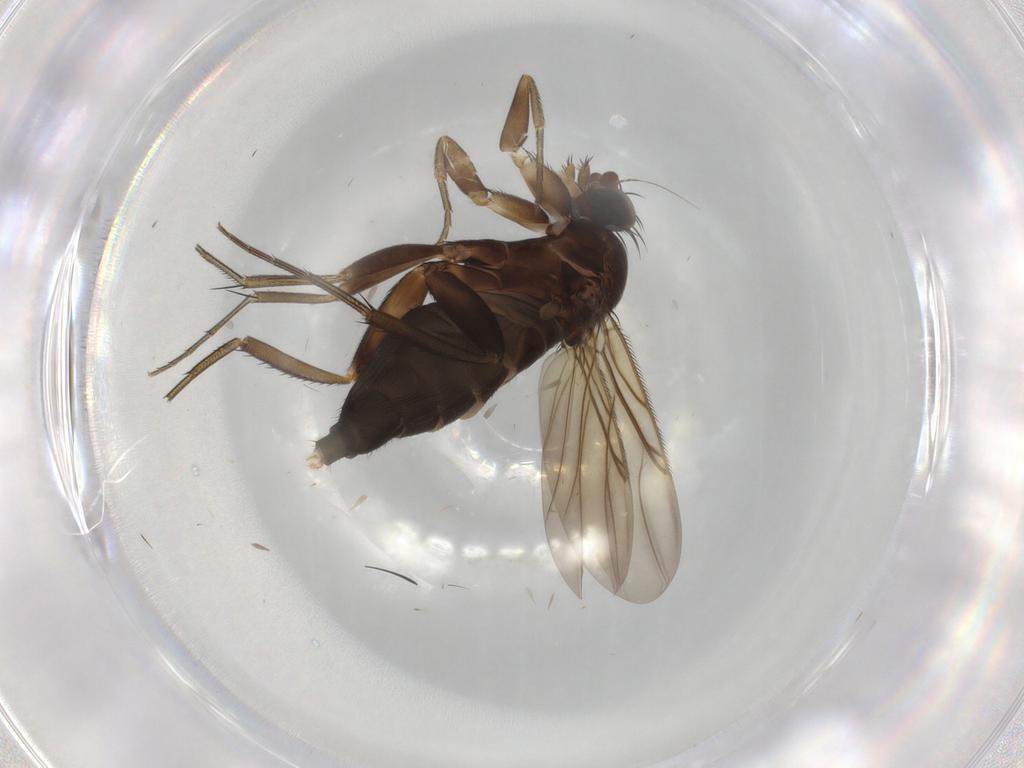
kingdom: Animalia
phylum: Arthropoda
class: Insecta
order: Diptera
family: Phoridae
